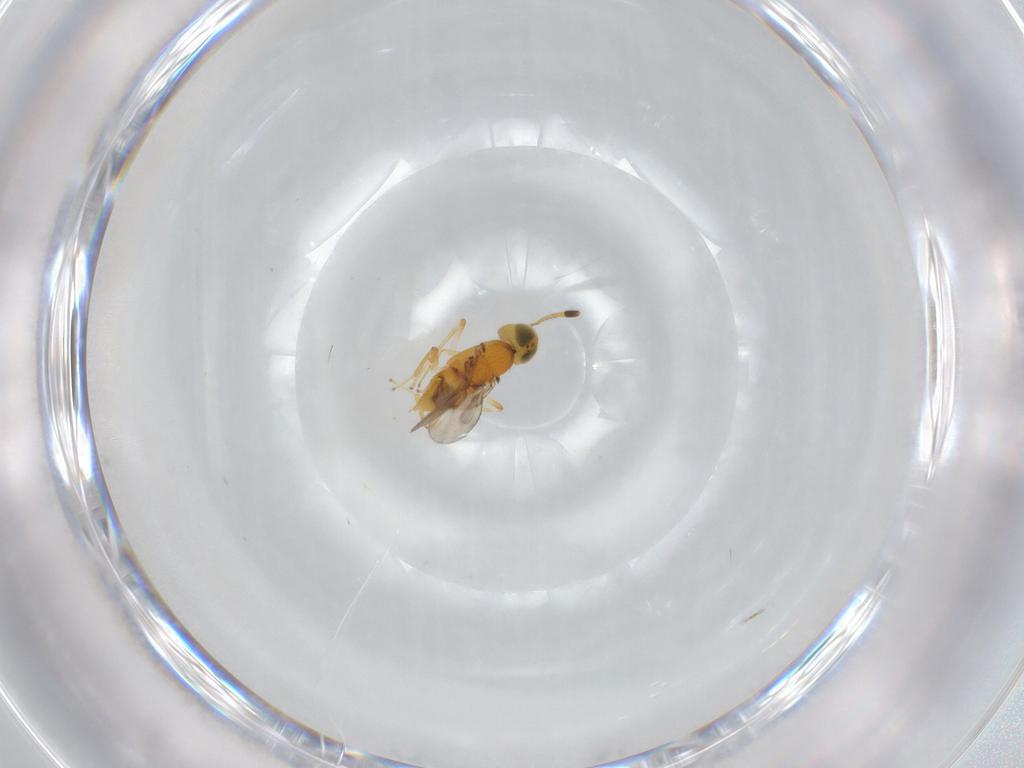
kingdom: Animalia
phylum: Arthropoda
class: Insecta
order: Hymenoptera
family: Encyrtidae
